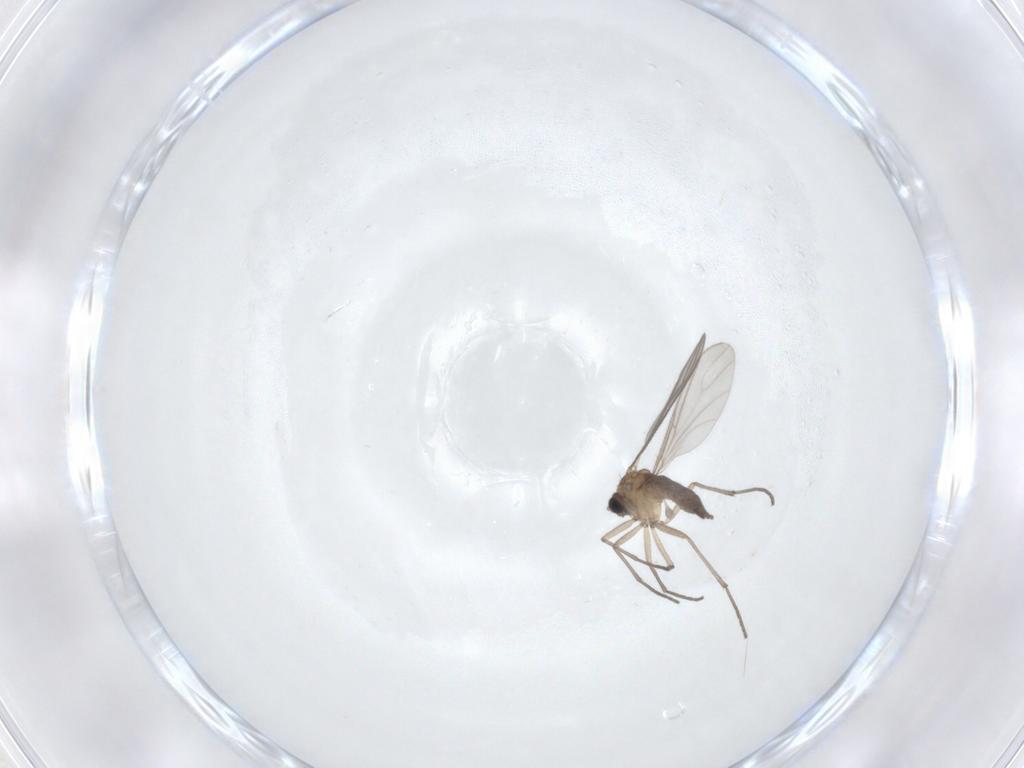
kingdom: Animalia
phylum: Arthropoda
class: Insecta
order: Diptera
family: Sciaridae
